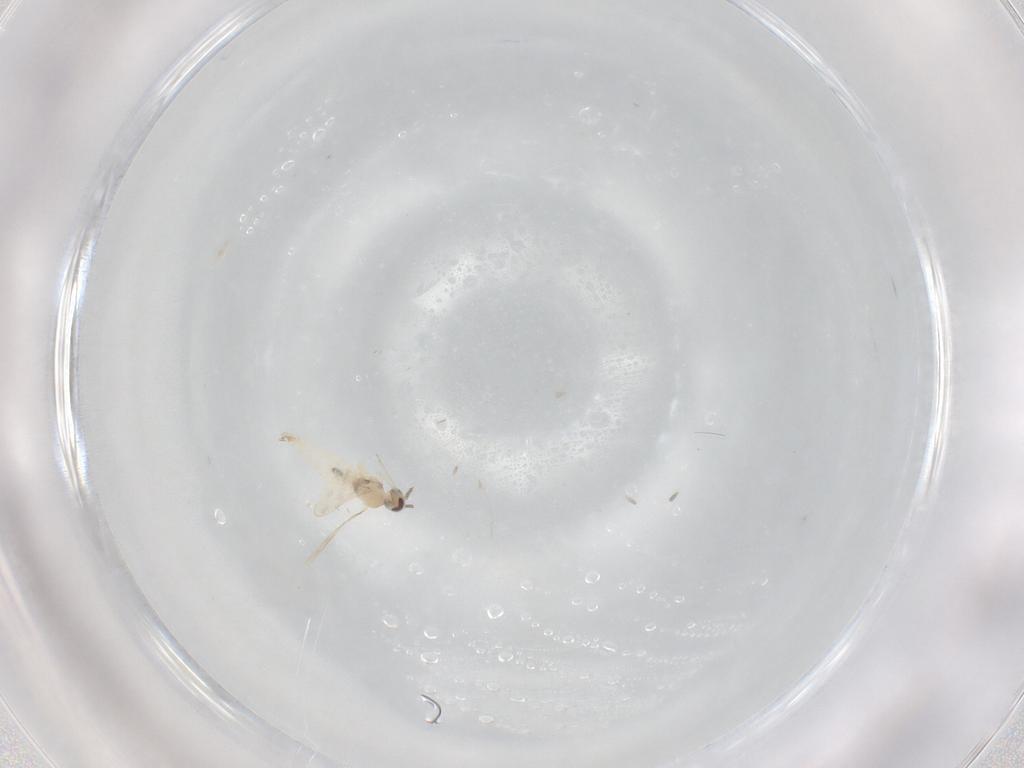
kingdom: Animalia
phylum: Arthropoda
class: Insecta
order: Diptera
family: Cecidomyiidae
